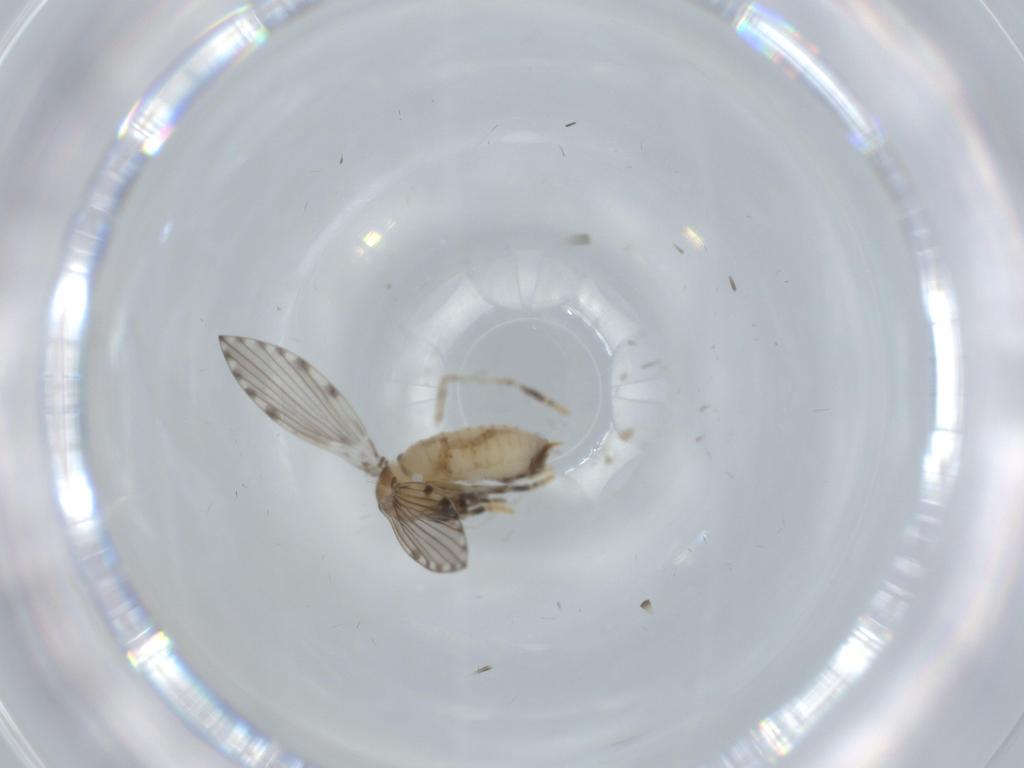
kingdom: Animalia
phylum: Arthropoda
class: Insecta
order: Diptera
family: Psychodidae
